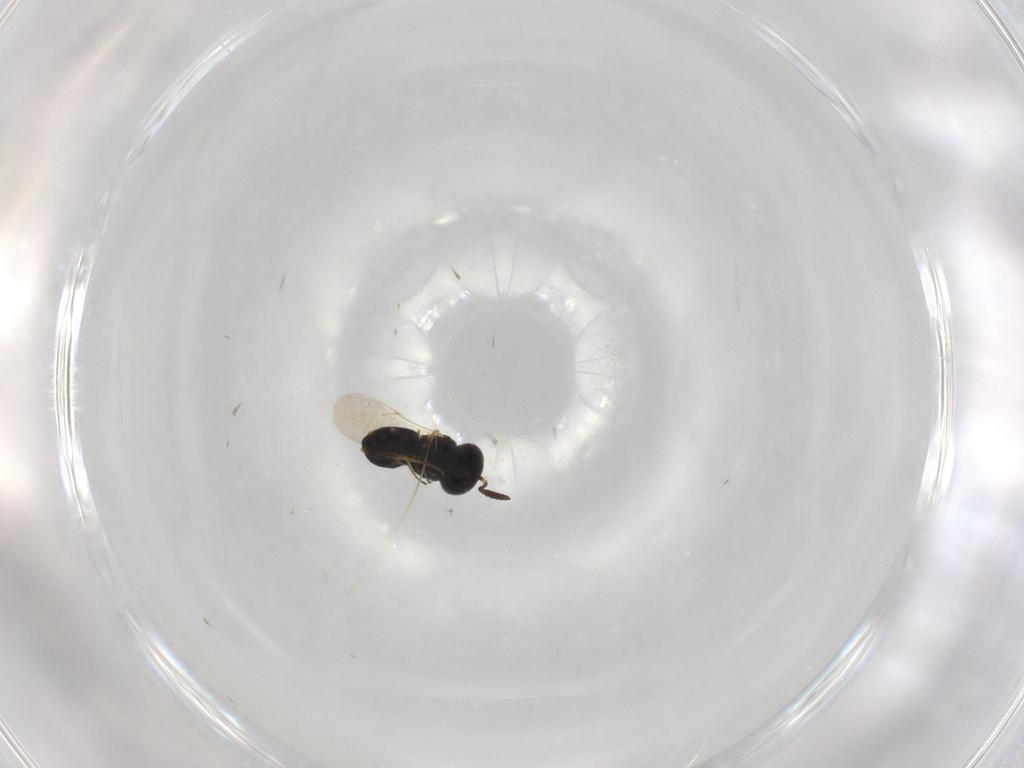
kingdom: Animalia
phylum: Arthropoda
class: Insecta
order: Hymenoptera
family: Scelionidae
